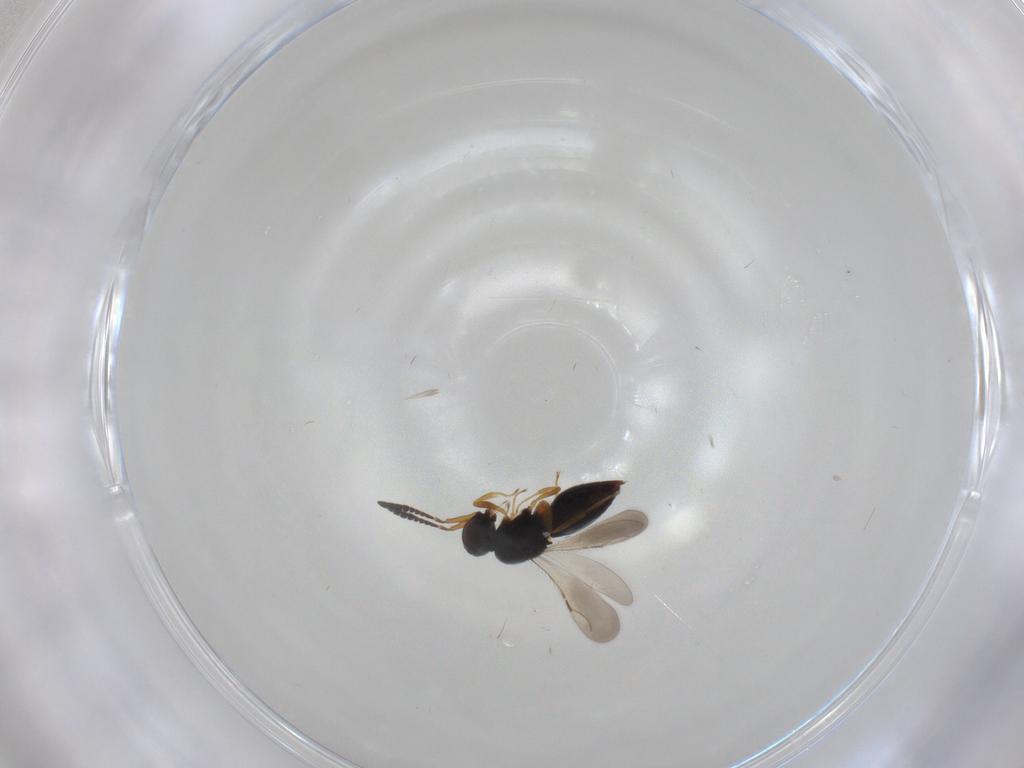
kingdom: Animalia
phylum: Arthropoda
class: Insecta
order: Hymenoptera
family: Ceraphronidae
